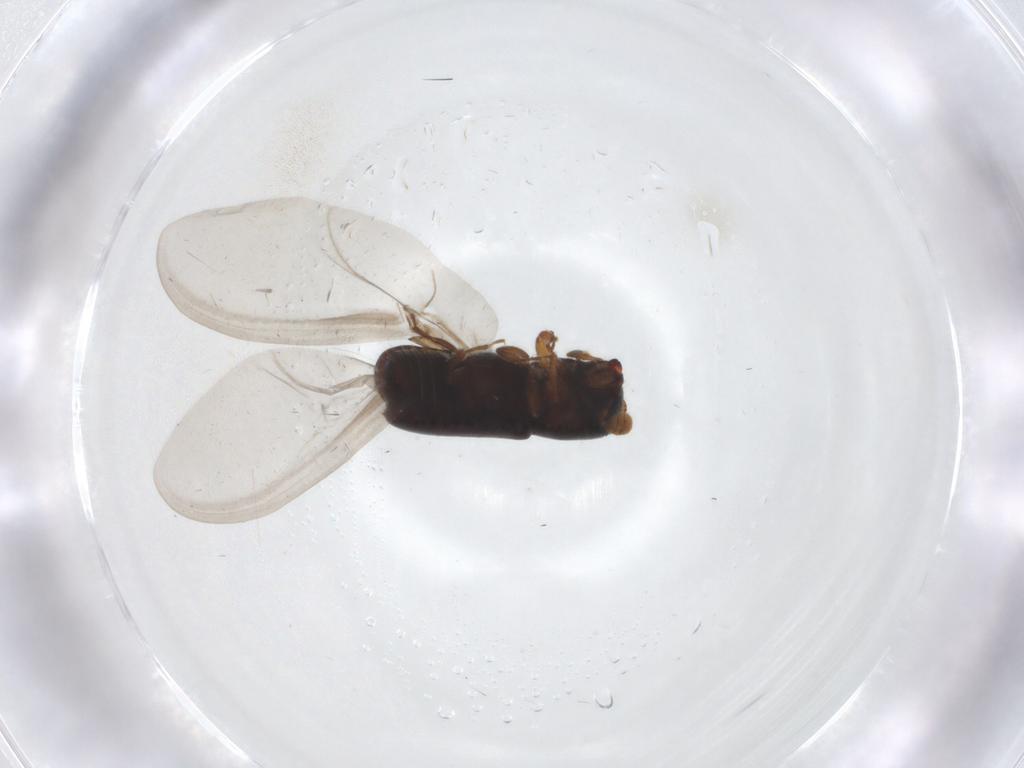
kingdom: Animalia
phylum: Arthropoda
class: Insecta
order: Coleoptera
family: Curculionidae
